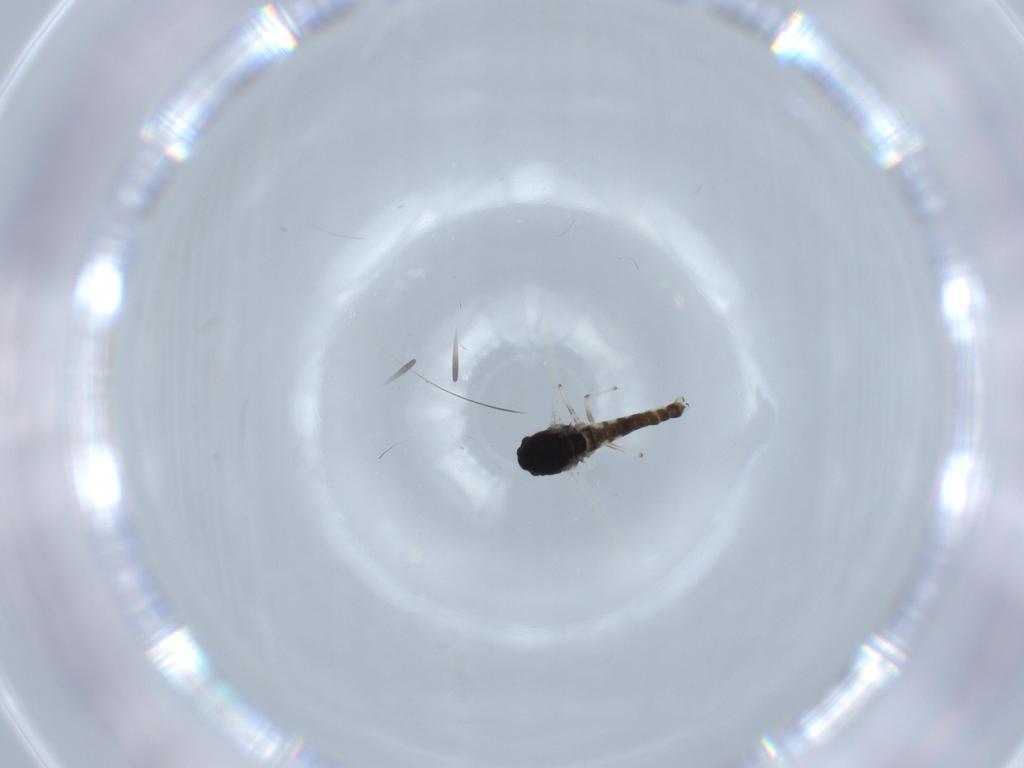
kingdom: Animalia
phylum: Arthropoda
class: Insecta
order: Diptera
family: Chironomidae
